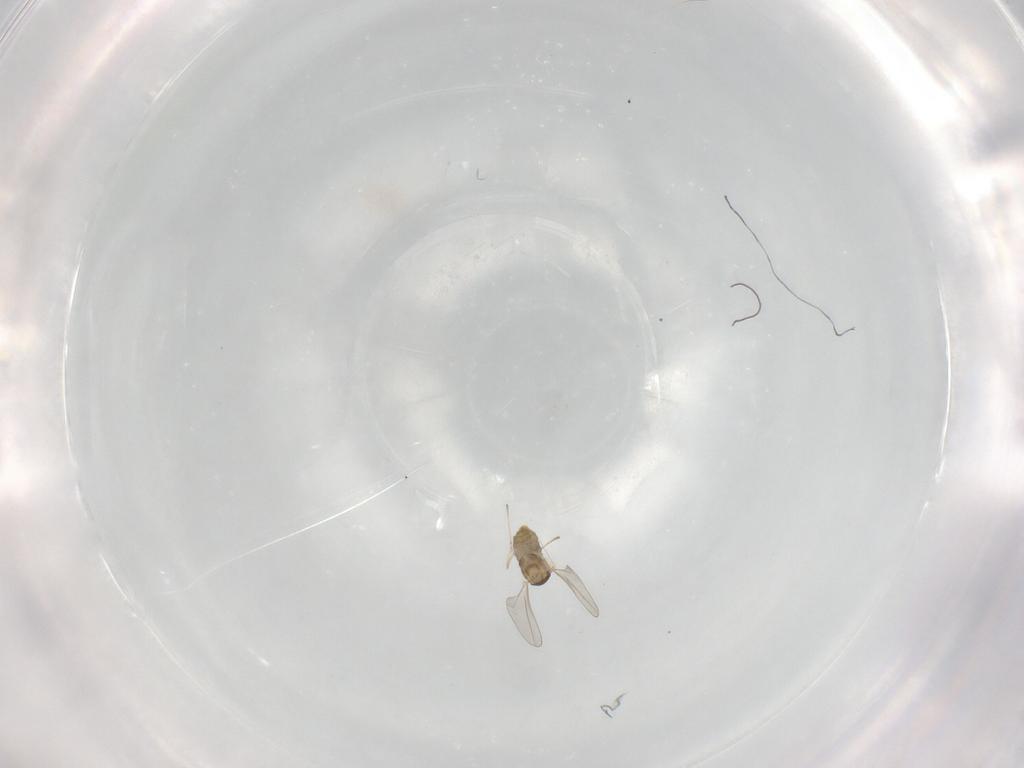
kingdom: Animalia
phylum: Arthropoda
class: Insecta
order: Diptera
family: Cecidomyiidae
